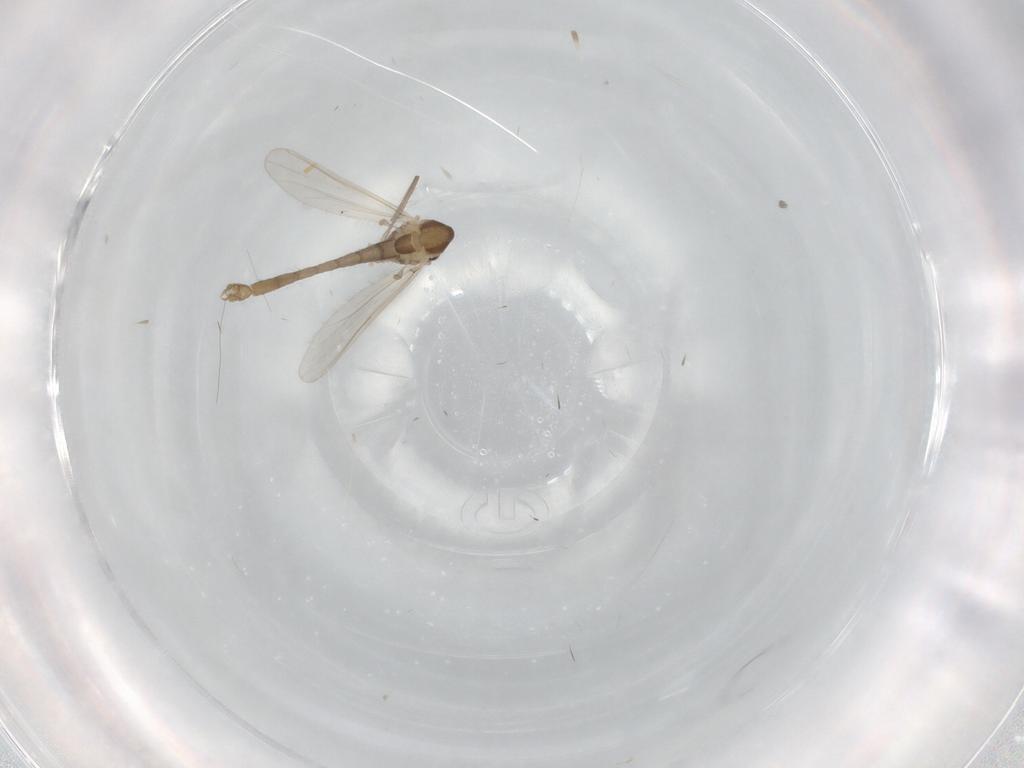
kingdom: Animalia
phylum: Arthropoda
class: Insecta
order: Diptera
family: Chironomidae
